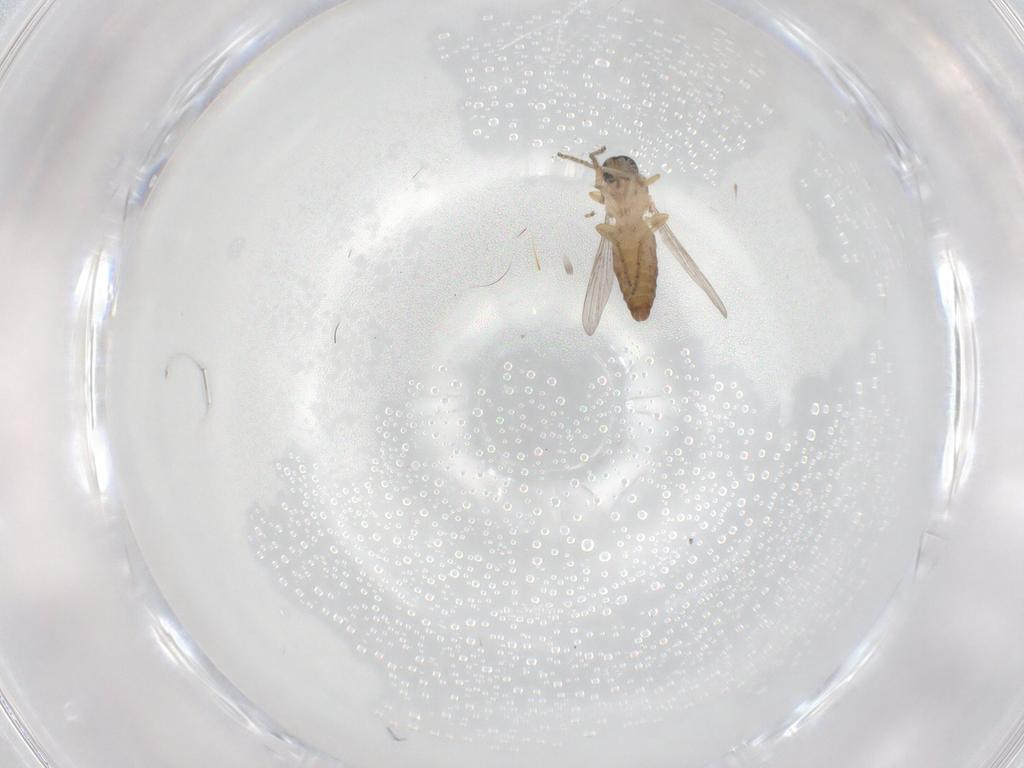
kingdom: Animalia
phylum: Arthropoda
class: Insecta
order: Diptera
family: Ceratopogonidae
